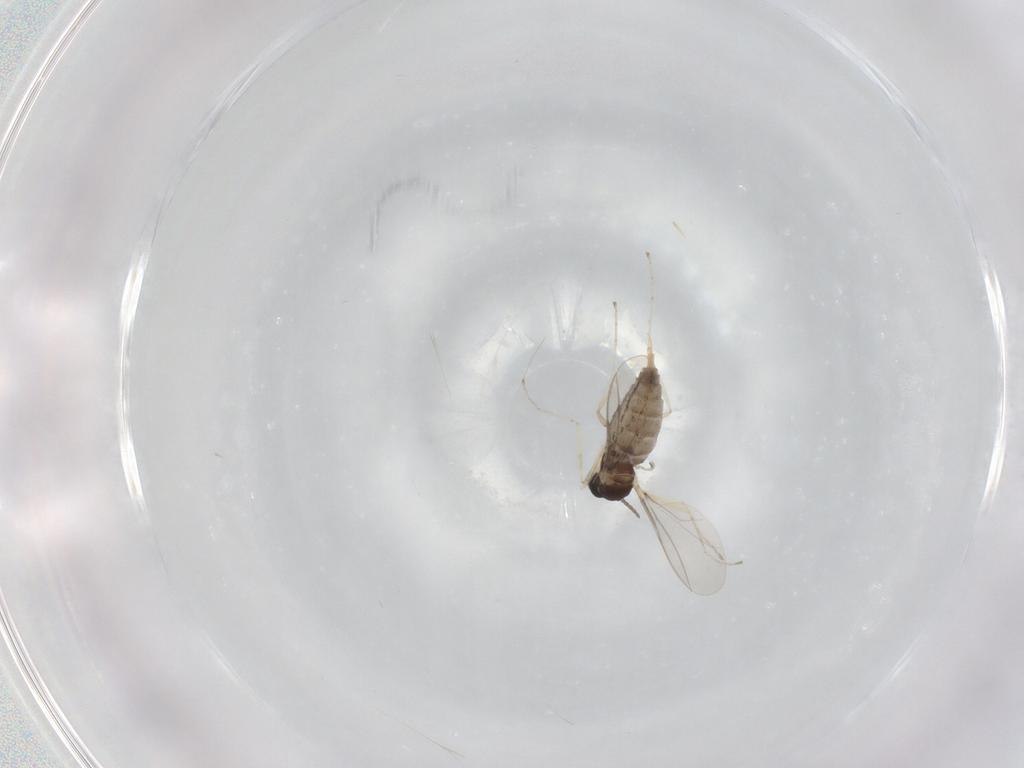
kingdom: Animalia
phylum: Arthropoda
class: Insecta
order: Diptera
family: Cecidomyiidae
